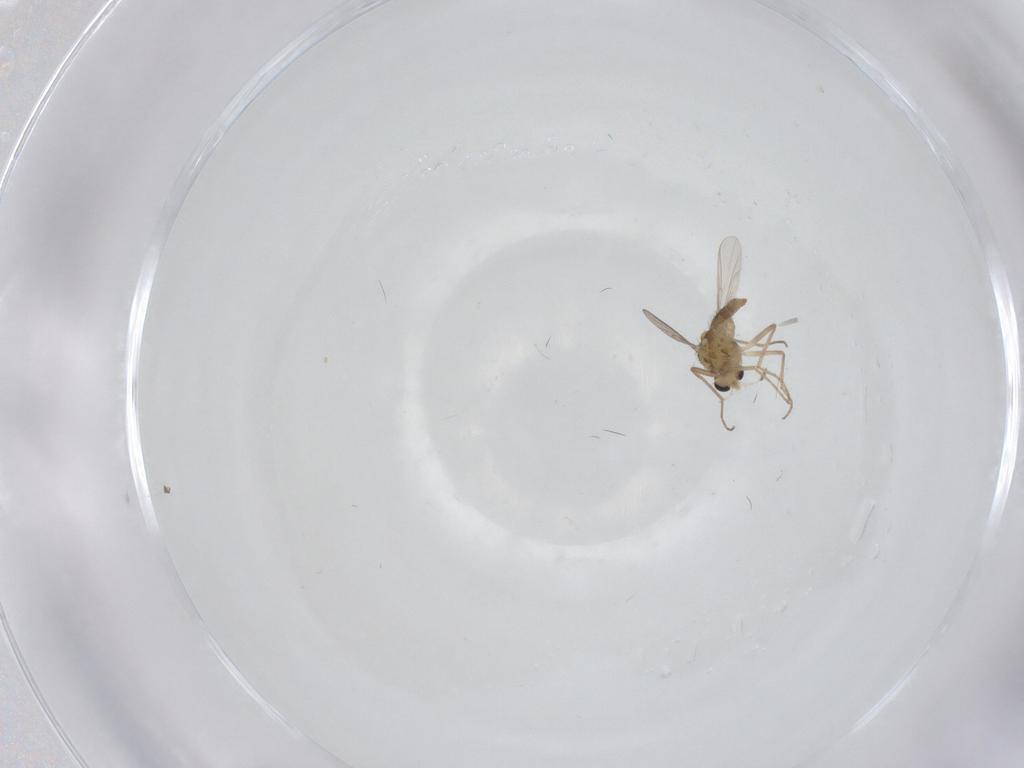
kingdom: Animalia
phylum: Arthropoda
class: Insecta
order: Diptera
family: Chironomidae
